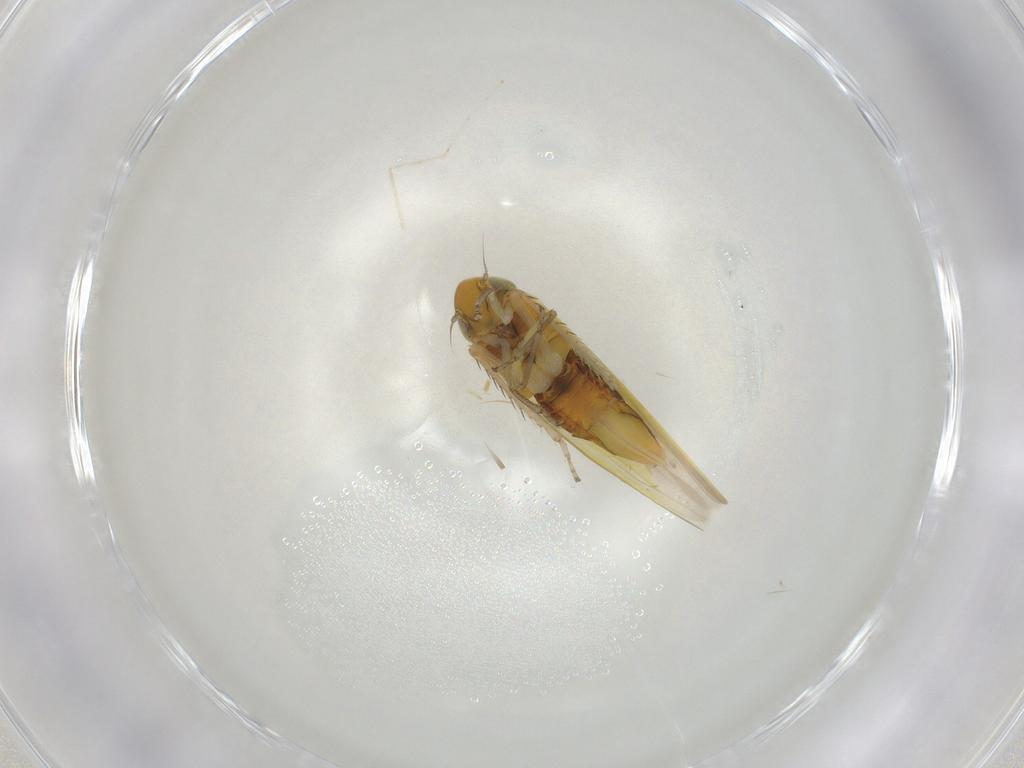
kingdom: Animalia
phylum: Arthropoda
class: Insecta
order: Hemiptera
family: Cicadellidae
